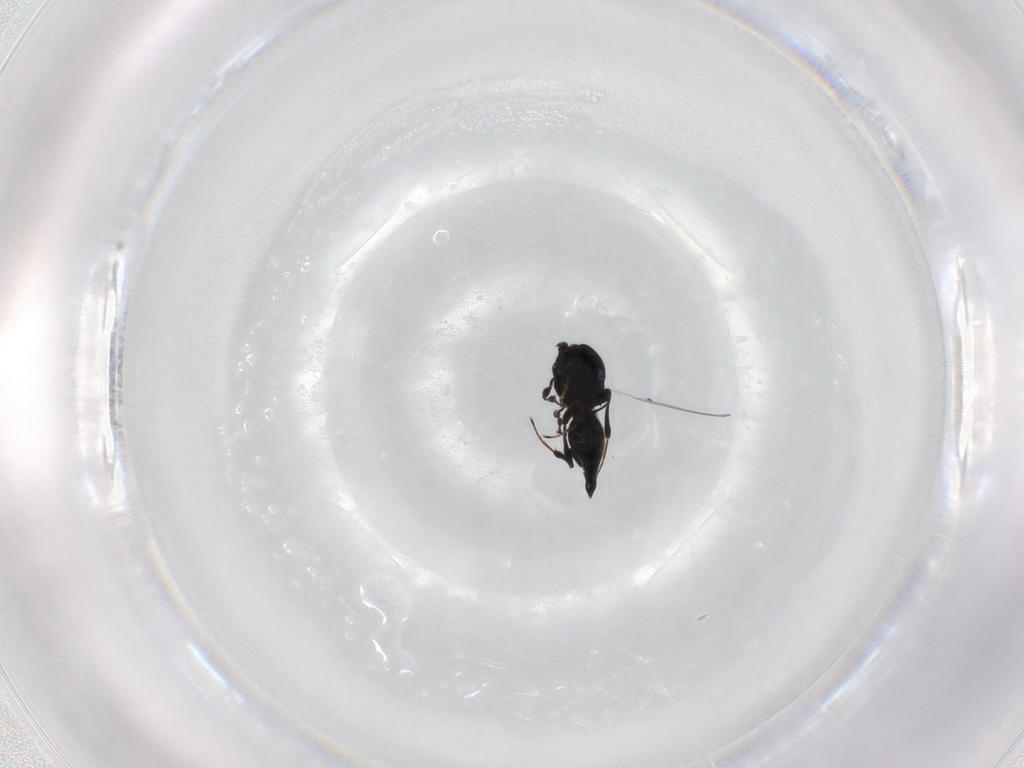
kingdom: Animalia
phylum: Arthropoda
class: Insecta
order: Hymenoptera
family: Platygastridae
